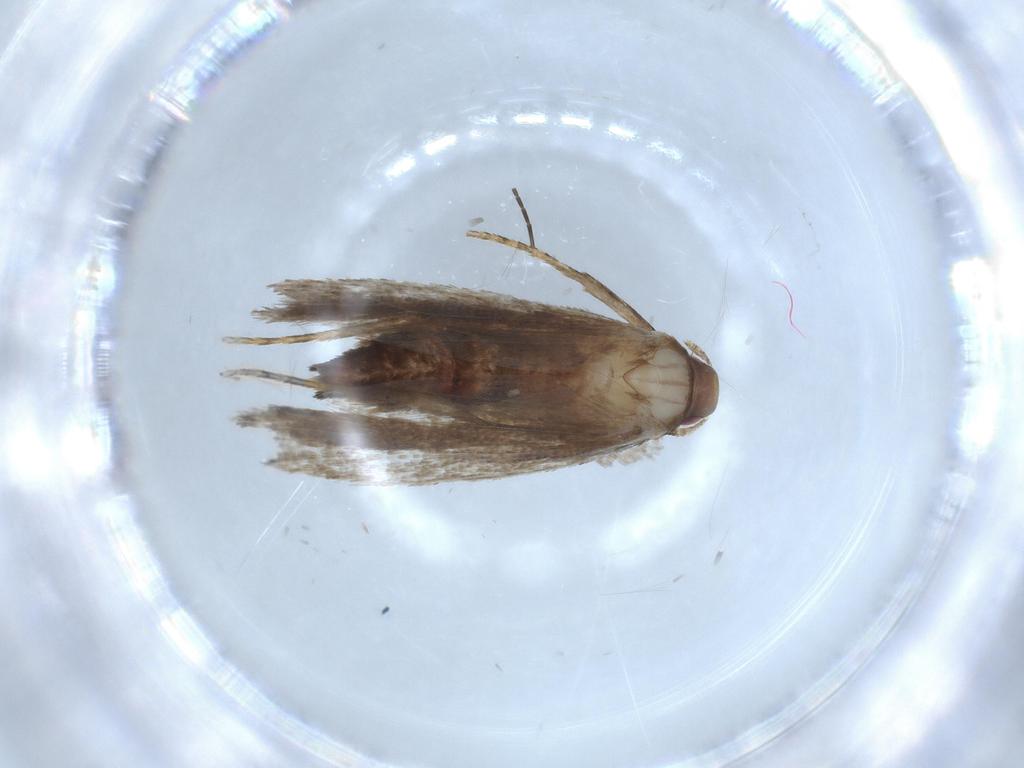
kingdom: Animalia
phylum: Arthropoda
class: Insecta
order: Lepidoptera
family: Gelechiidae
